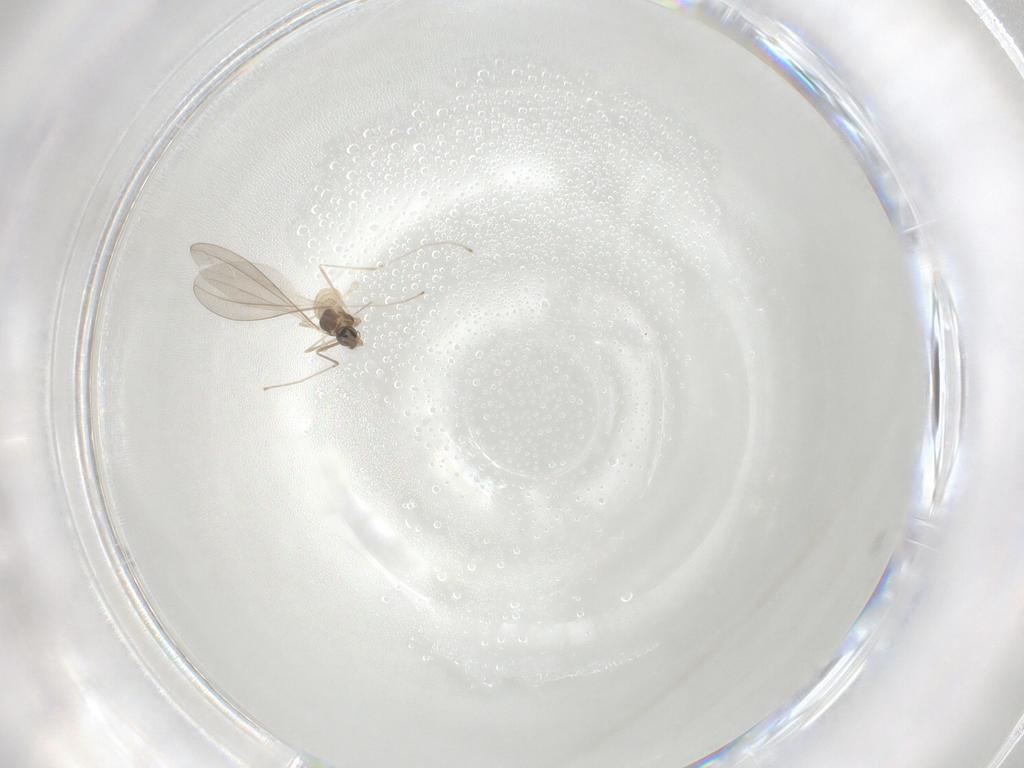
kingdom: Animalia
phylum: Arthropoda
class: Insecta
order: Diptera
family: Cecidomyiidae
